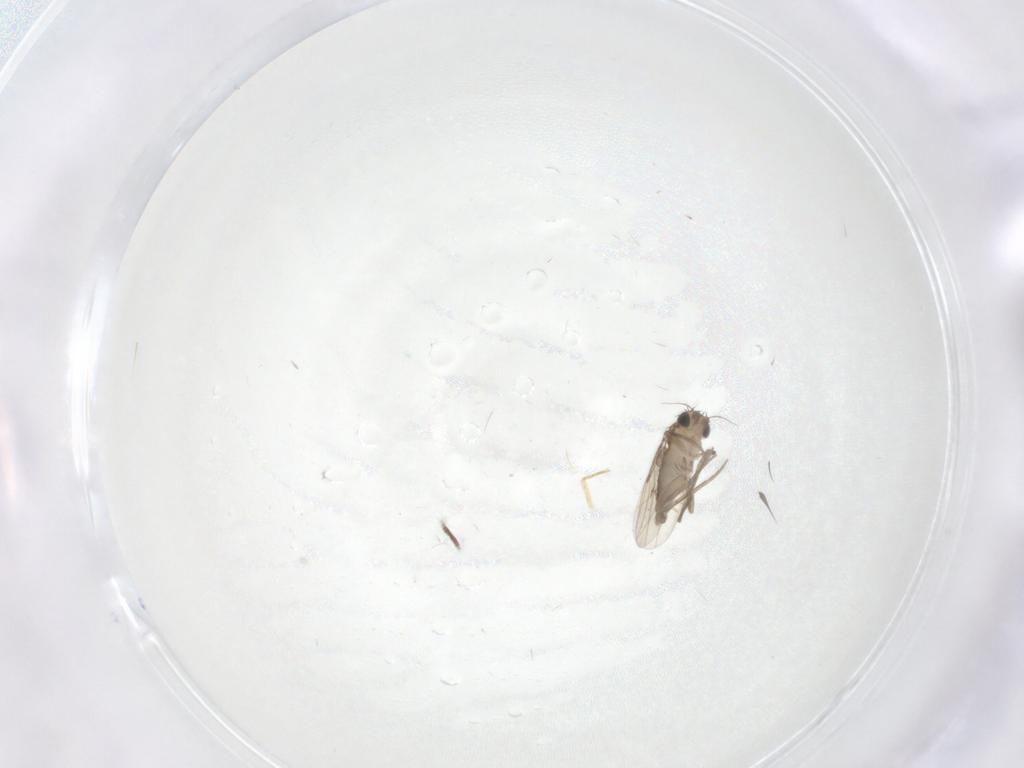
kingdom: Animalia
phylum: Arthropoda
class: Insecta
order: Diptera
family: Phoridae
